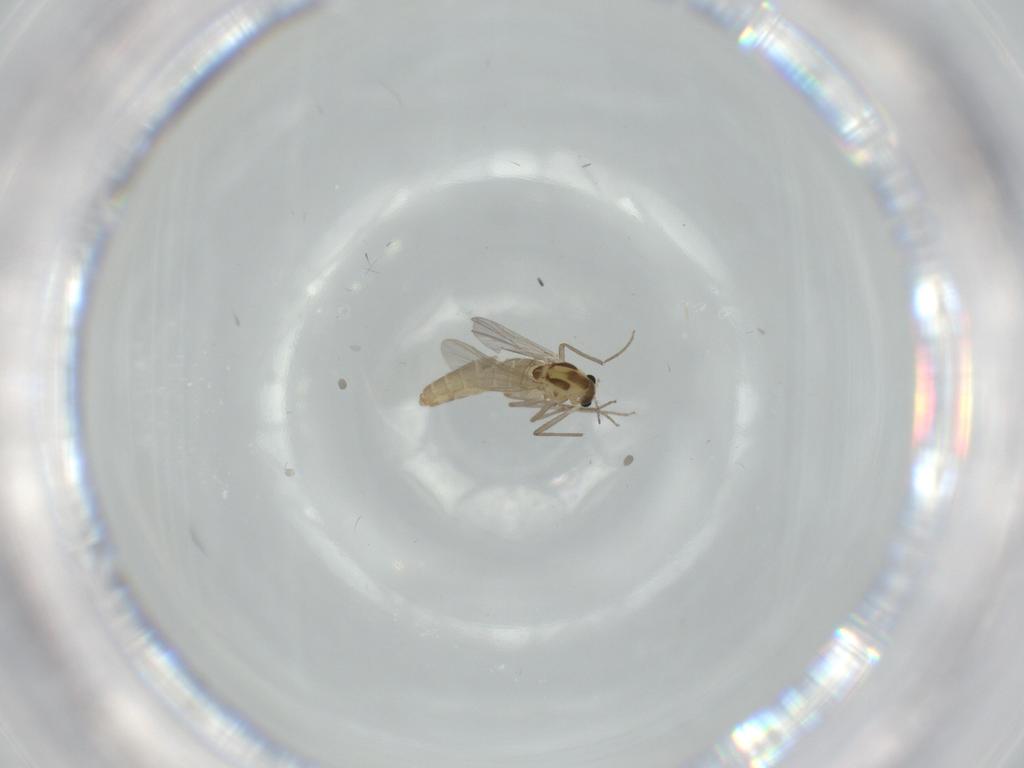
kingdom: Animalia
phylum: Arthropoda
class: Insecta
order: Diptera
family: Chironomidae
